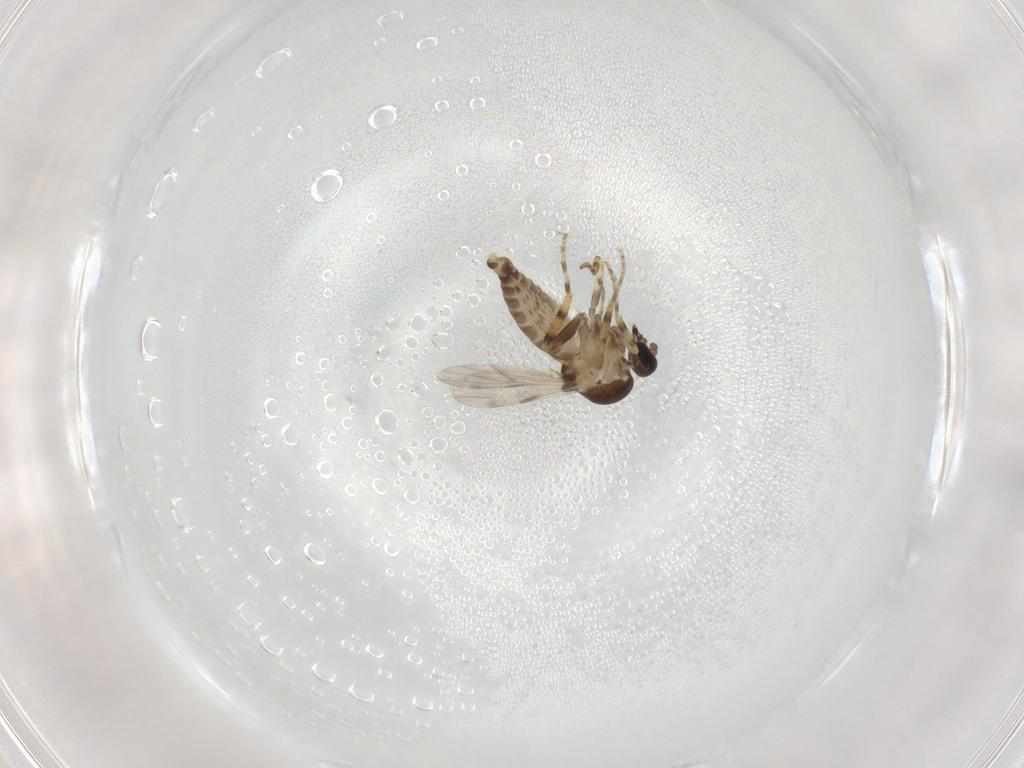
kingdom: Animalia
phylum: Arthropoda
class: Insecta
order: Diptera
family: Ceratopogonidae
